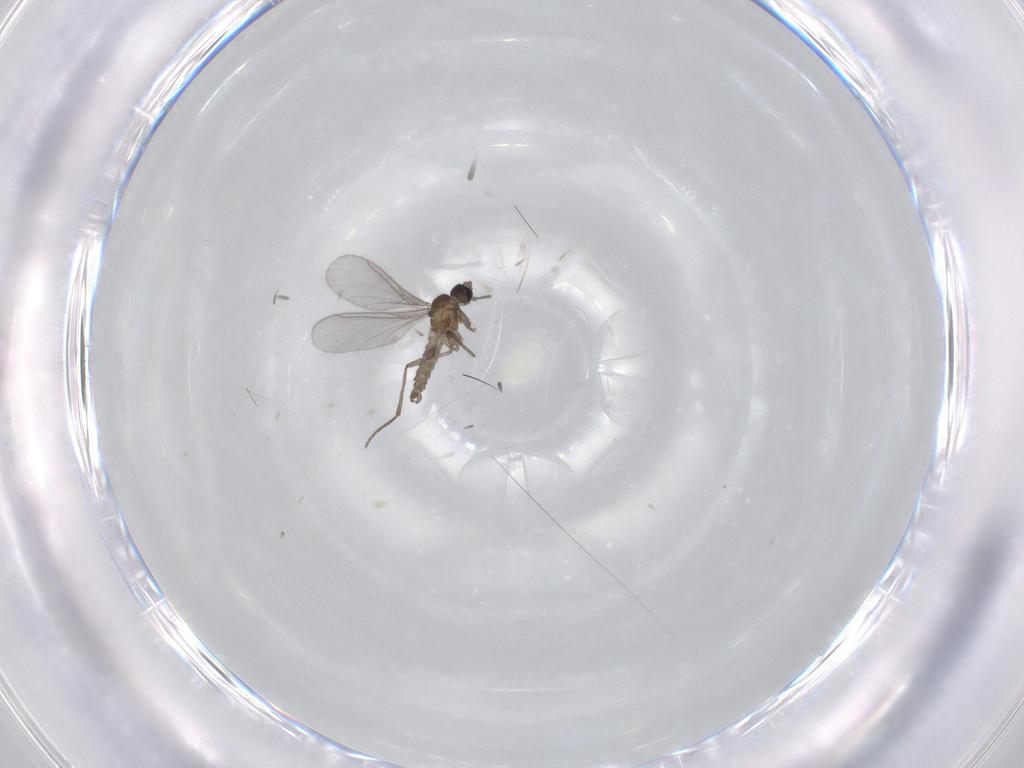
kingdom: Animalia
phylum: Arthropoda
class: Insecta
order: Diptera
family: Sciaridae
